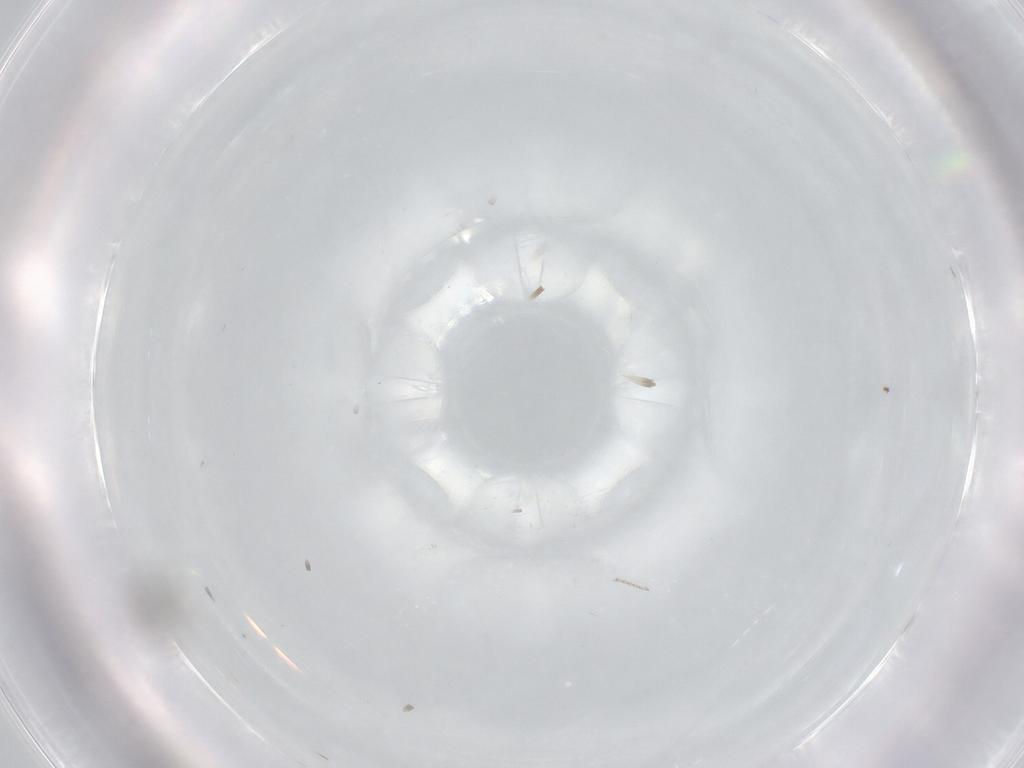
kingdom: Animalia
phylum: Arthropoda
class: Insecta
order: Diptera
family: Cecidomyiidae
